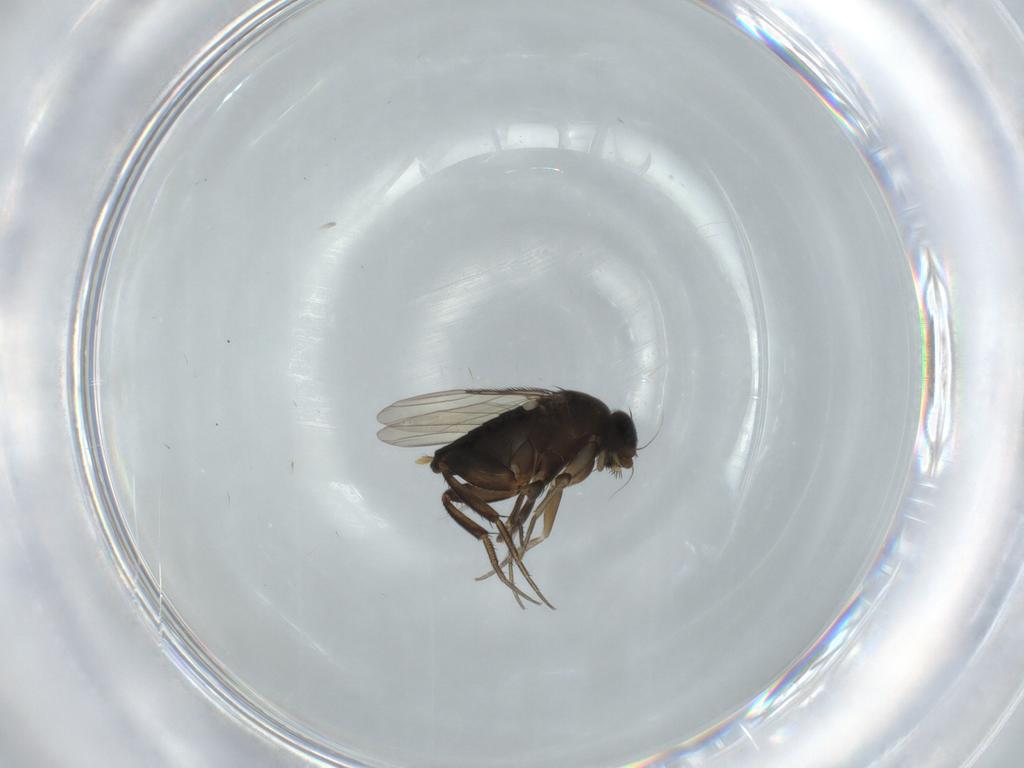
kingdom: Animalia
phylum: Arthropoda
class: Insecta
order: Diptera
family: Phoridae
